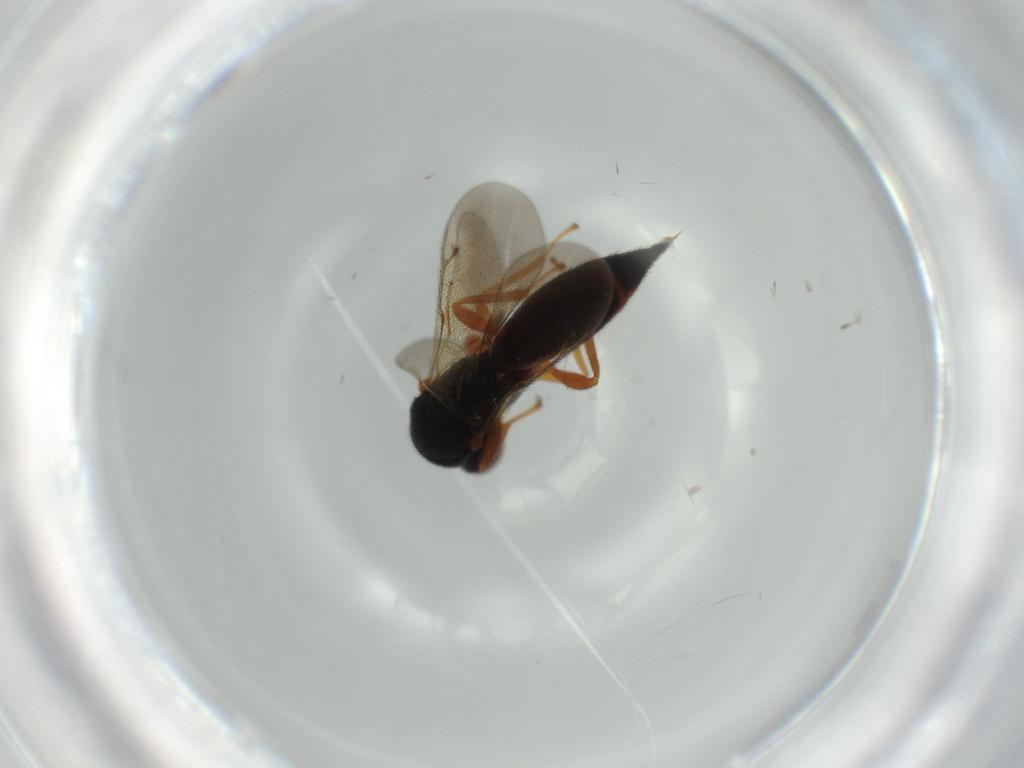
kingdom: Animalia
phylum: Arthropoda
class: Insecta
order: Hymenoptera
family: Eurytomidae
